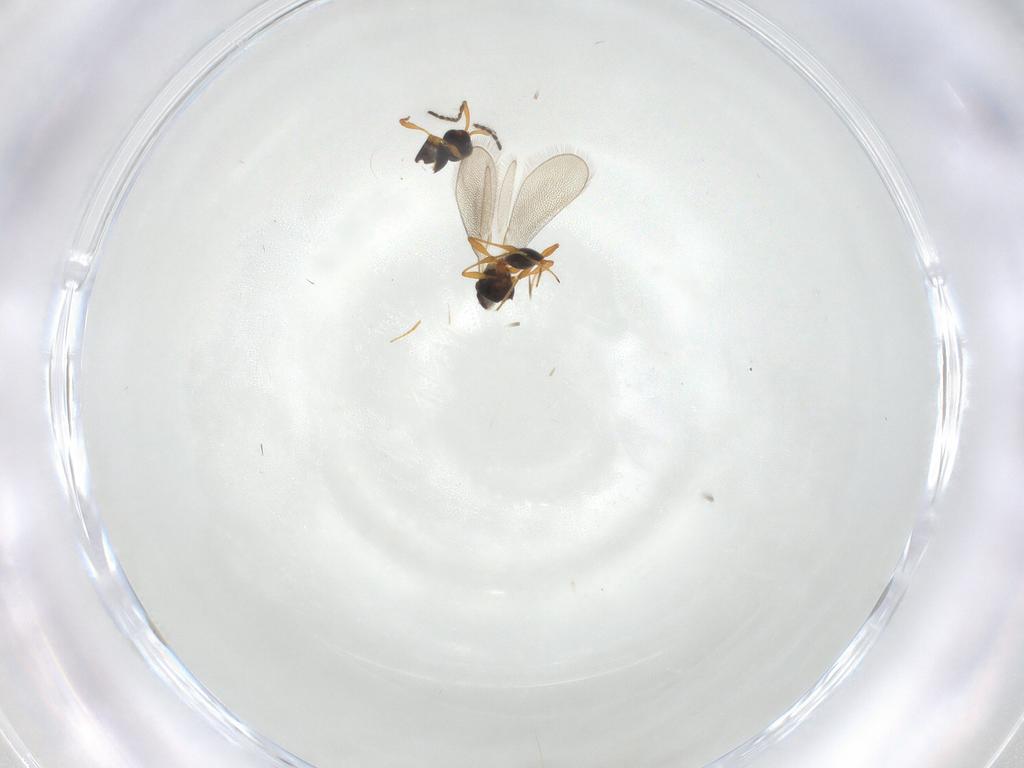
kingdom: Animalia
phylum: Arthropoda
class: Insecta
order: Hymenoptera
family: Platygastridae
